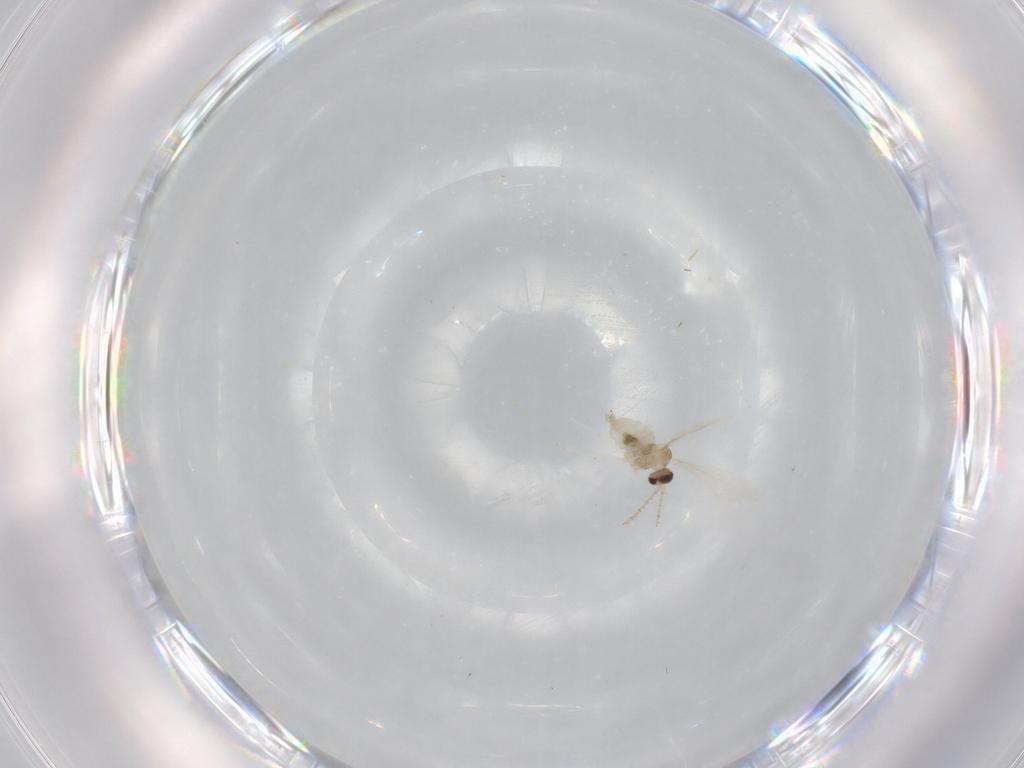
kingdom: Animalia
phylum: Arthropoda
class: Insecta
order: Diptera
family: Cecidomyiidae
